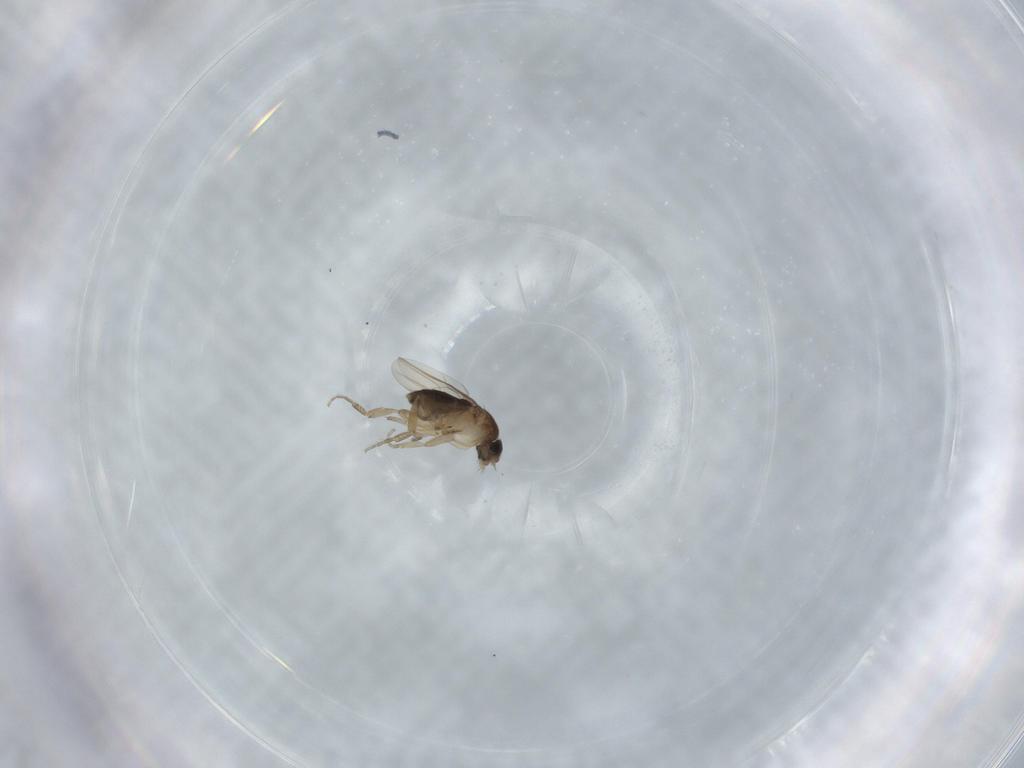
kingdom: Animalia
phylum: Arthropoda
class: Insecta
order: Diptera
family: Phoridae
